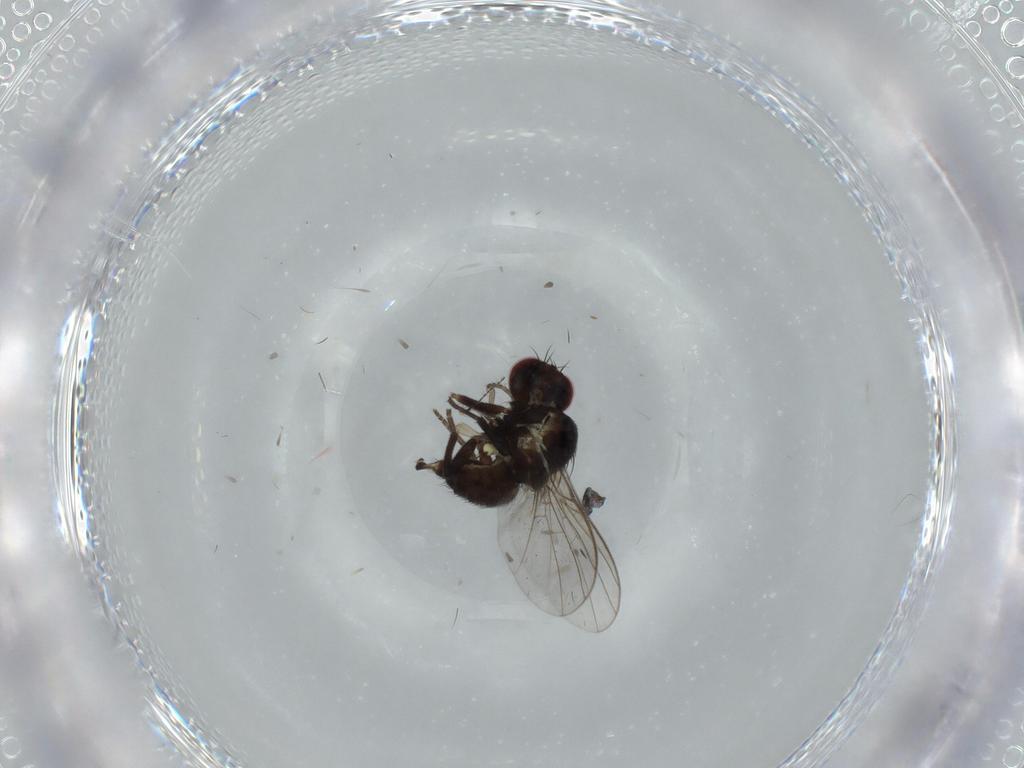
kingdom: Animalia
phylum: Arthropoda
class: Insecta
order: Diptera
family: Agromyzidae
